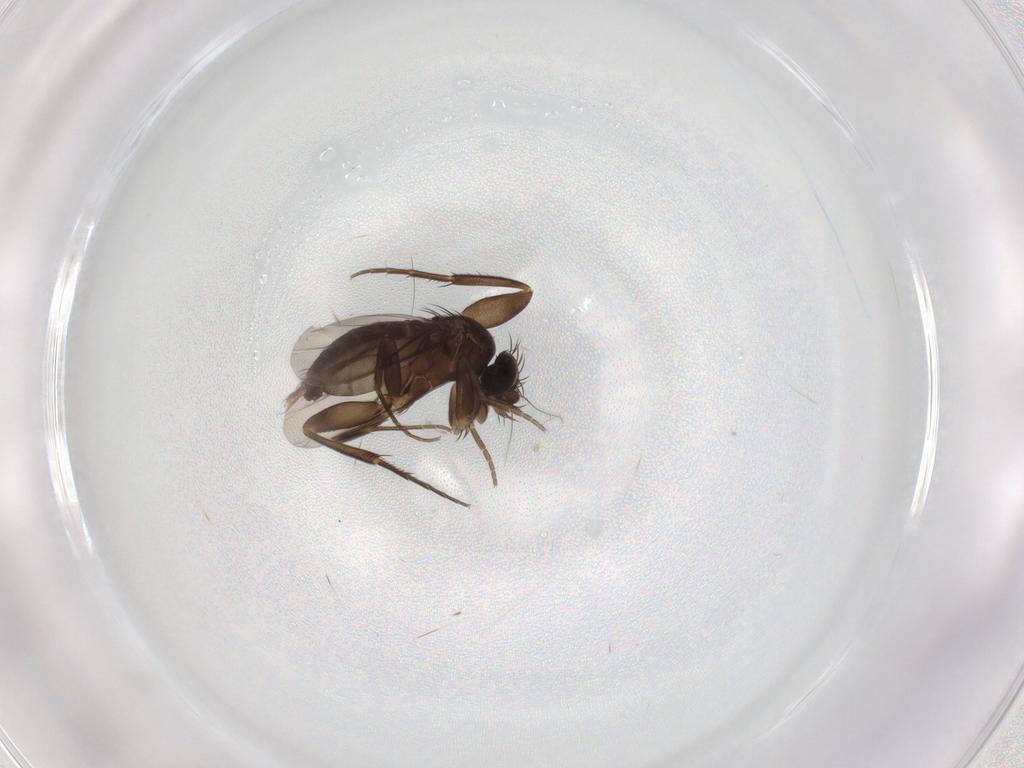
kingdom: Animalia
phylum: Arthropoda
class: Insecta
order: Diptera
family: Phoridae
